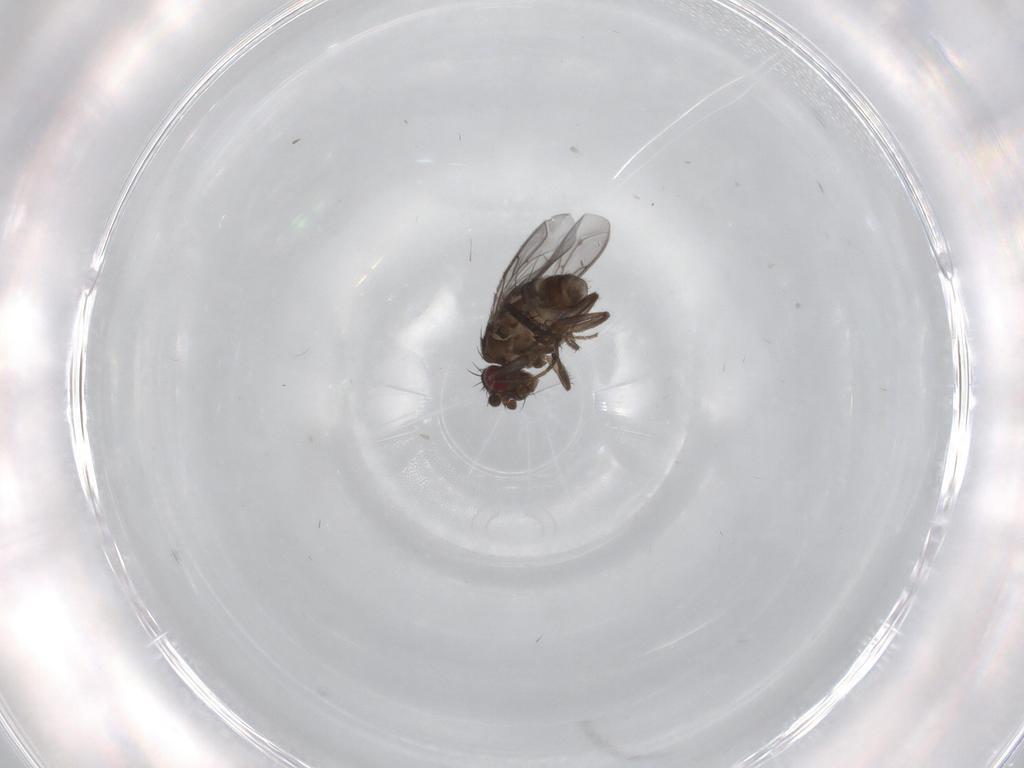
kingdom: Animalia
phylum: Arthropoda
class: Insecta
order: Diptera
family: Sphaeroceridae
